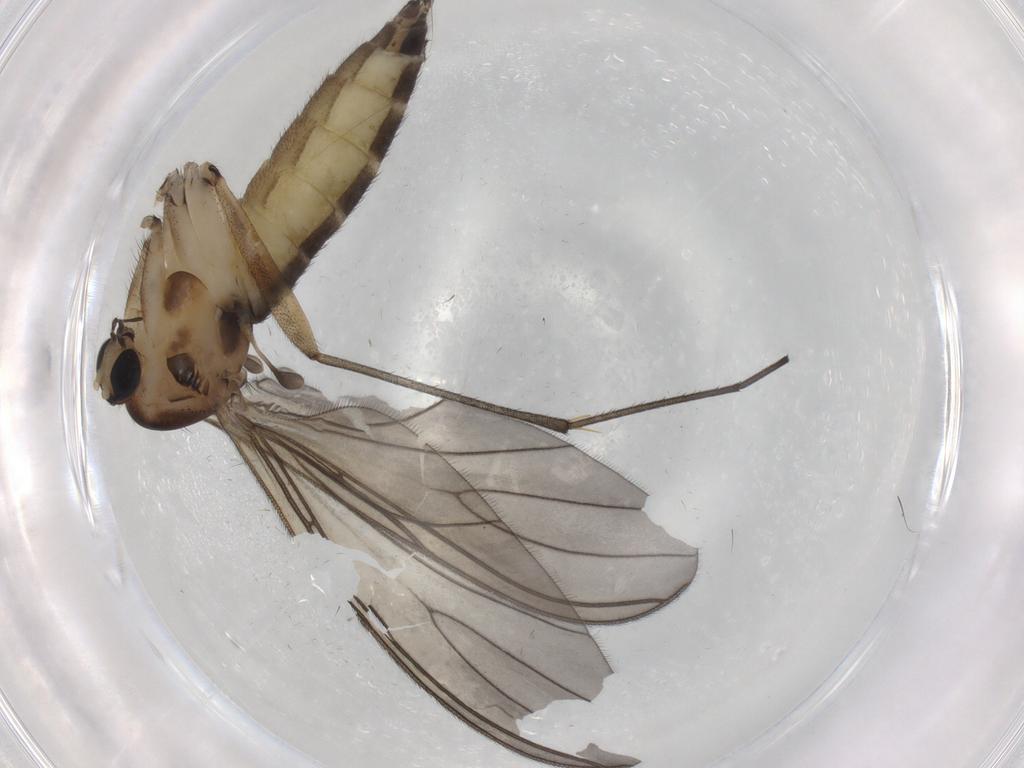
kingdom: Animalia
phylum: Arthropoda
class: Insecta
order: Diptera
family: Sciaridae
